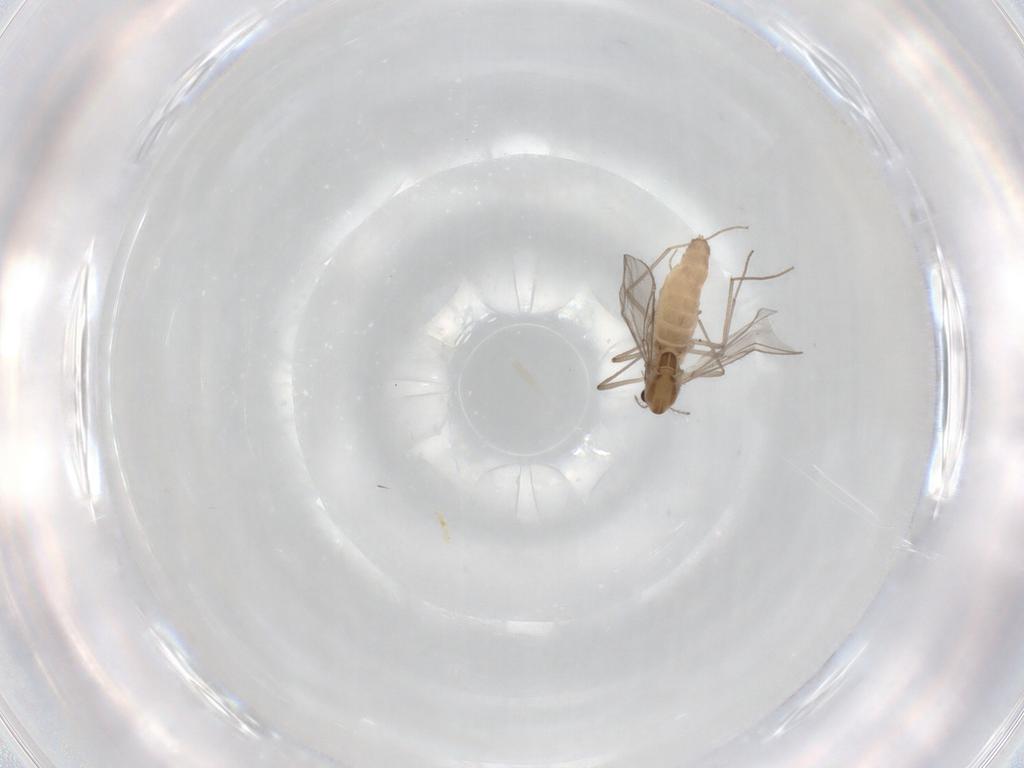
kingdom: Animalia
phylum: Arthropoda
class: Insecta
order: Diptera
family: Chironomidae
